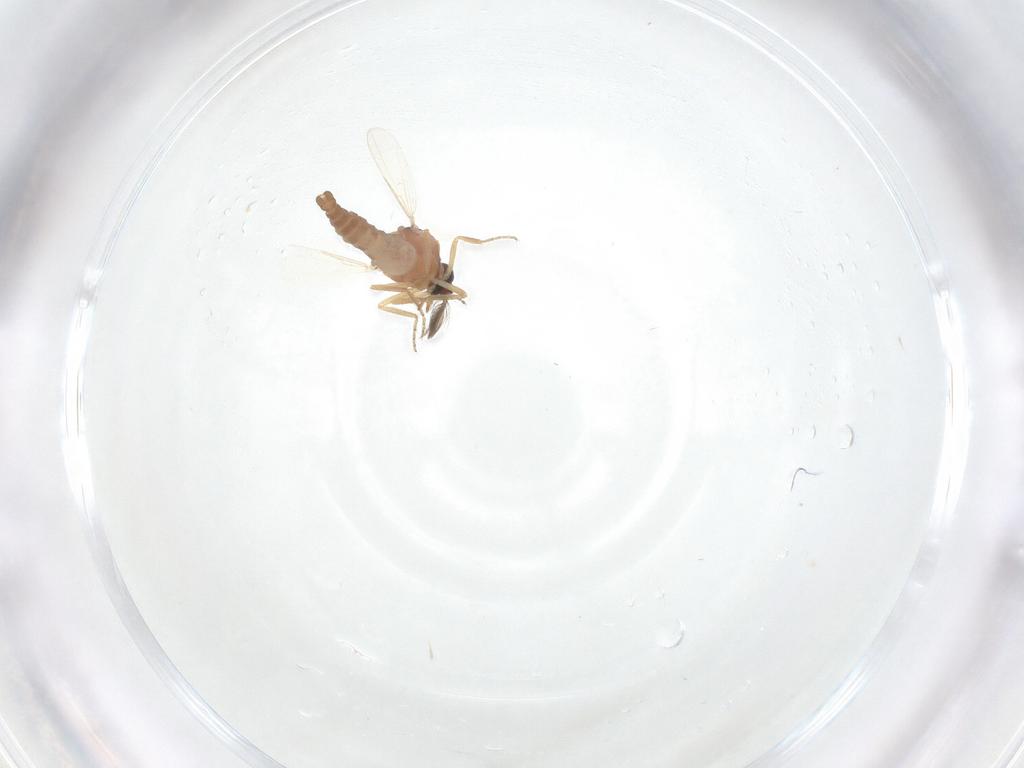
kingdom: Animalia
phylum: Arthropoda
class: Insecta
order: Diptera
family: Ceratopogonidae
